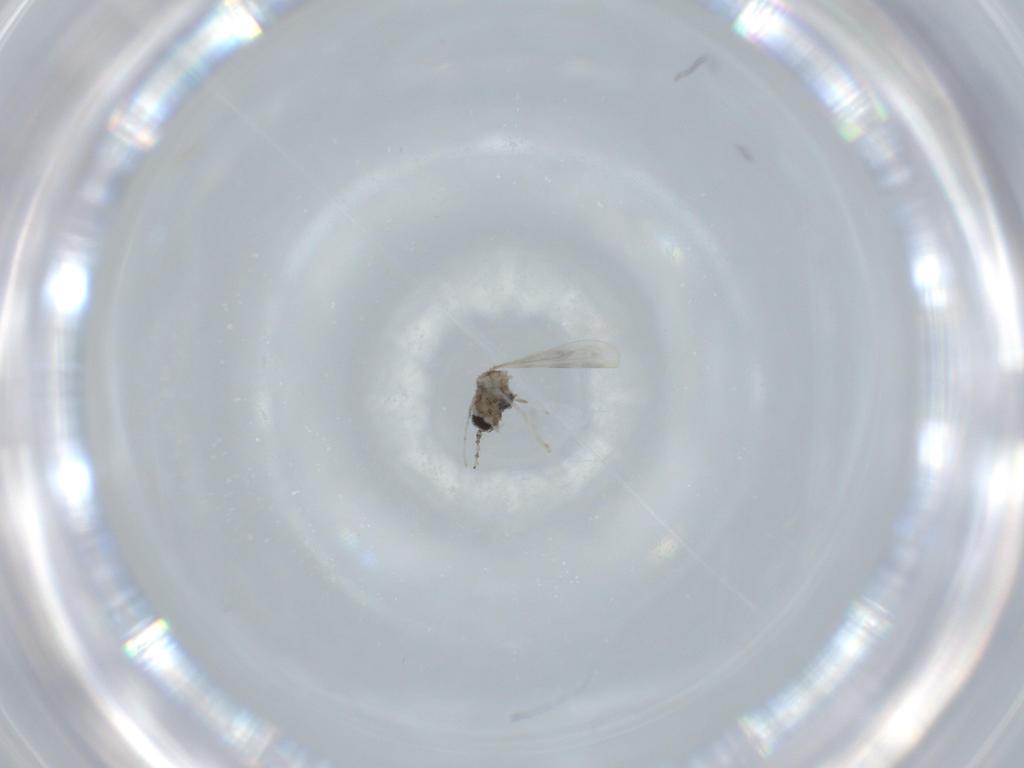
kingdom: Animalia
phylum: Arthropoda
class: Insecta
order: Diptera
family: Cecidomyiidae
